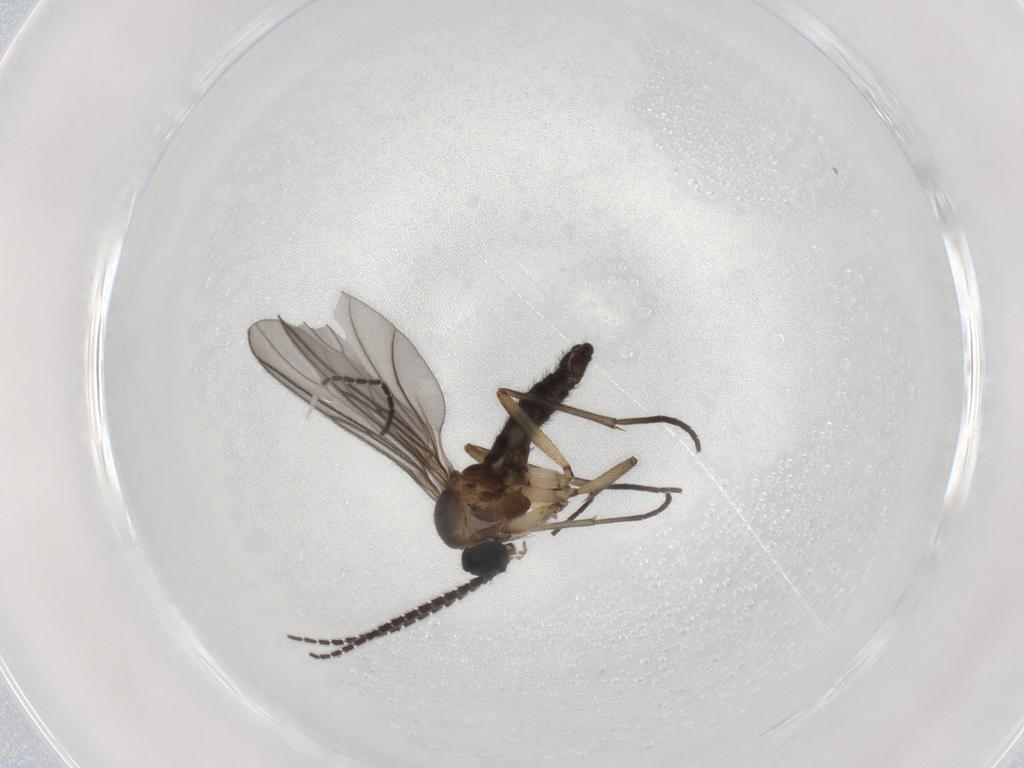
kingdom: Animalia
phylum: Arthropoda
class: Insecta
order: Diptera
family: Sciaridae
